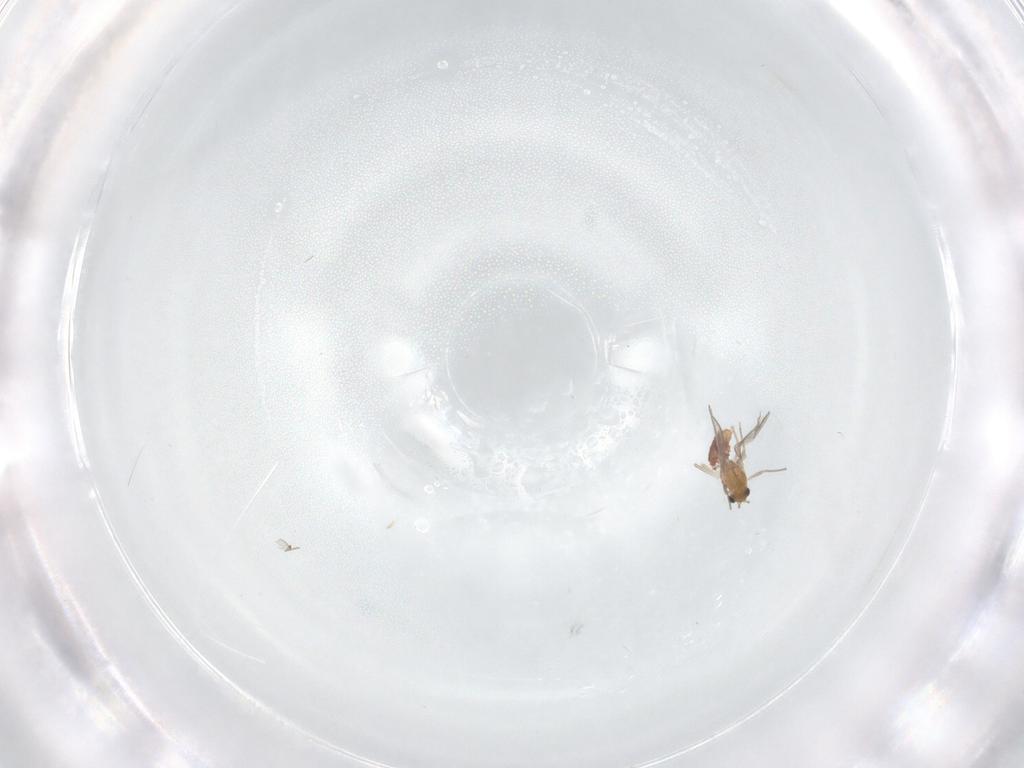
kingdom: Animalia
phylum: Arthropoda
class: Insecta
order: Diptera
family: Chironomidae
